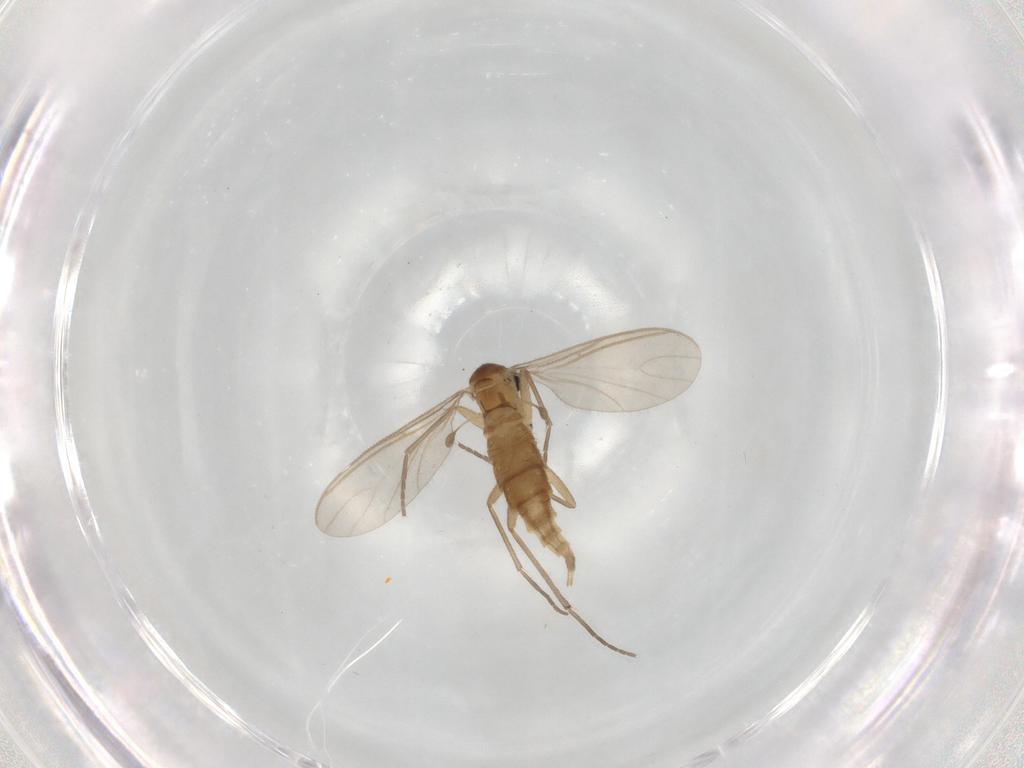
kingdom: Animalia
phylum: Arthropoda
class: Insecta
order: Diptera
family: Sciaridae
